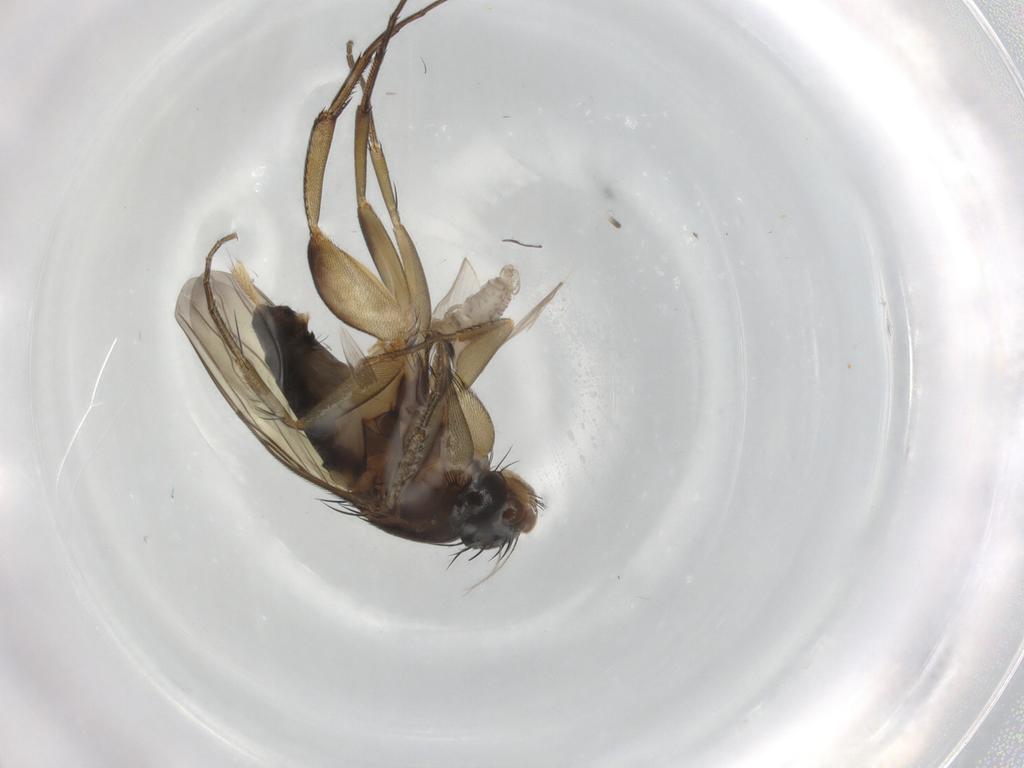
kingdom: Animalia
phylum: Arthropoda
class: Insecta
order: Diptera
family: Phoridae
